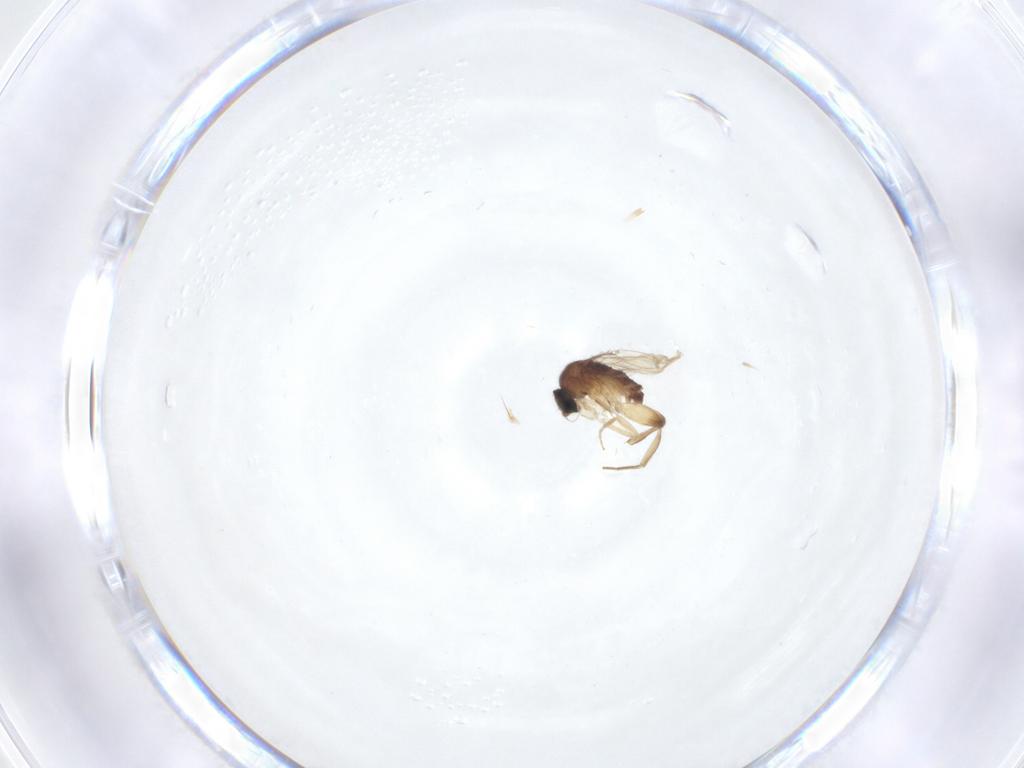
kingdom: Animalia
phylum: Arthropoda
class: Insecta
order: Diptera
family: Phoridae
